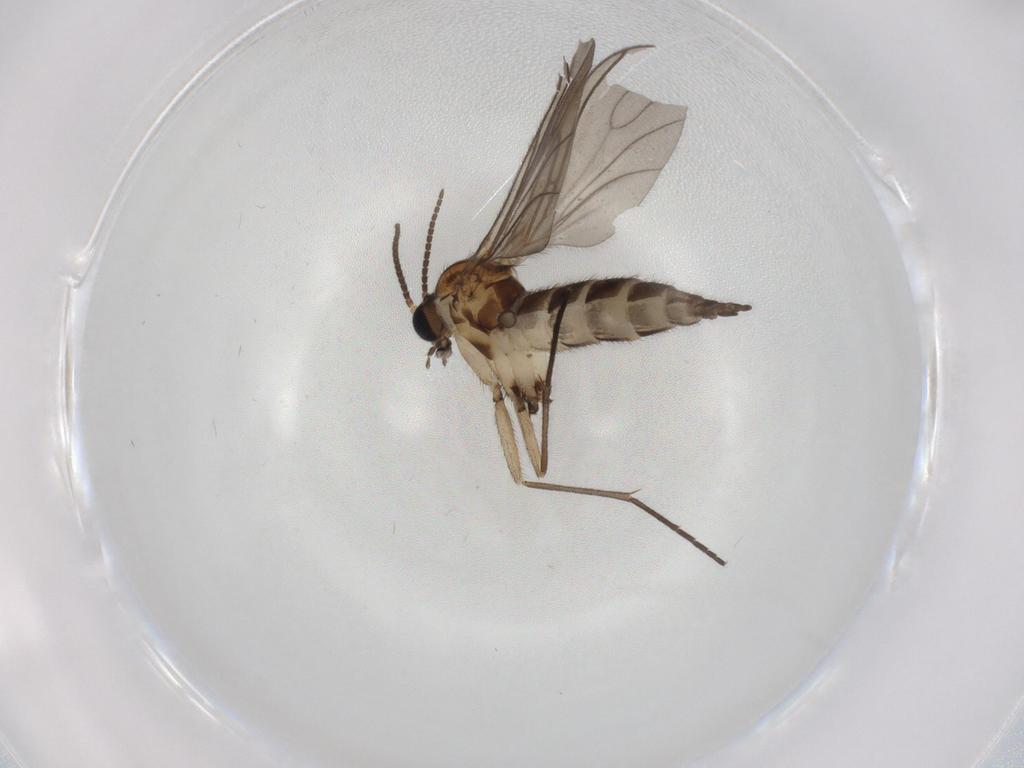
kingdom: Animalia
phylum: Arthropoda
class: Insecta
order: Diptera
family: Sciaridae
